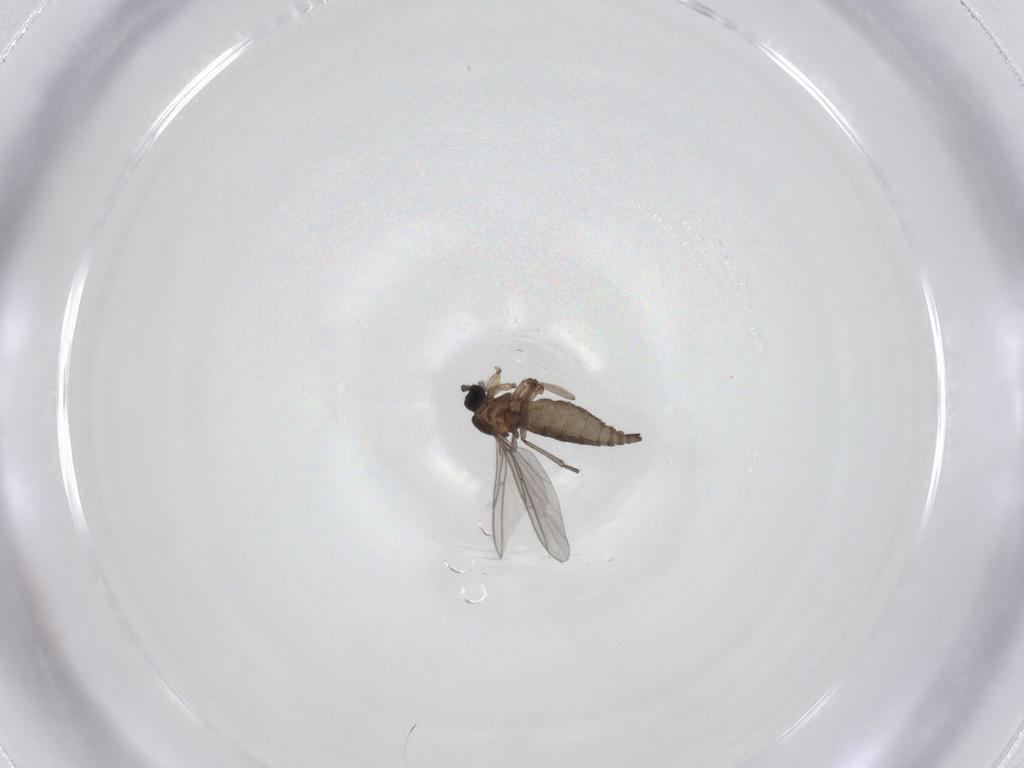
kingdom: Animalia
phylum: Arthropoda
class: Insecta
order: Diptera
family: Sciaridae
